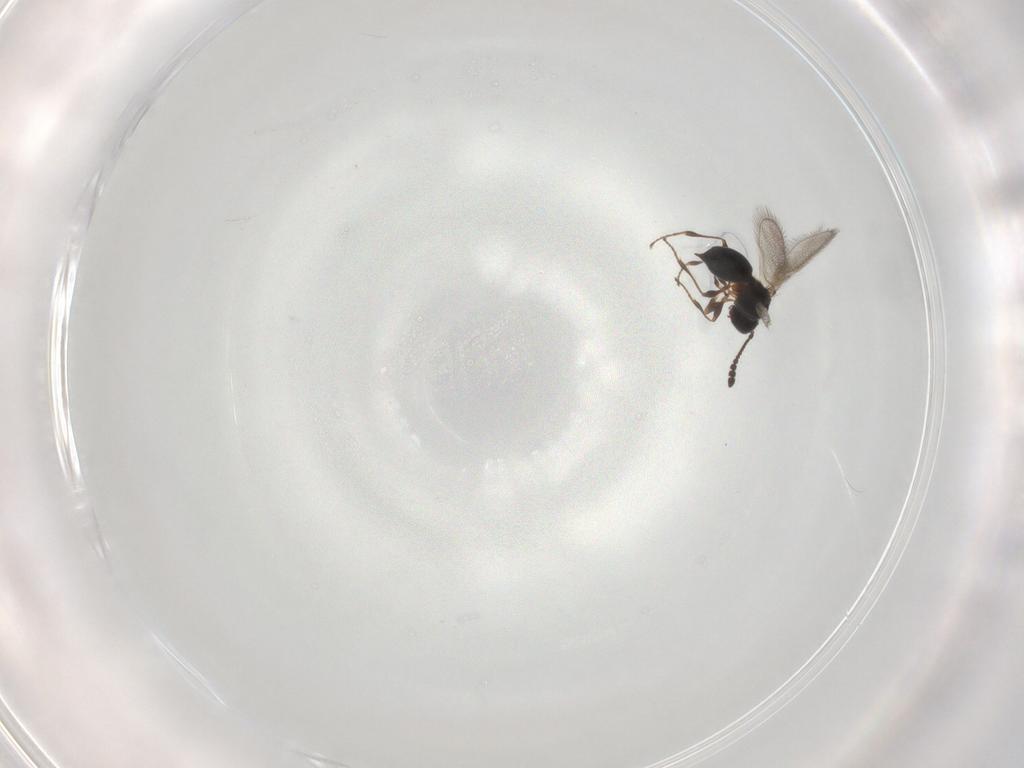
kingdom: Animalia
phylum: Arthropoda
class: Insecta
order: Hymenoptera
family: Diapriidae
